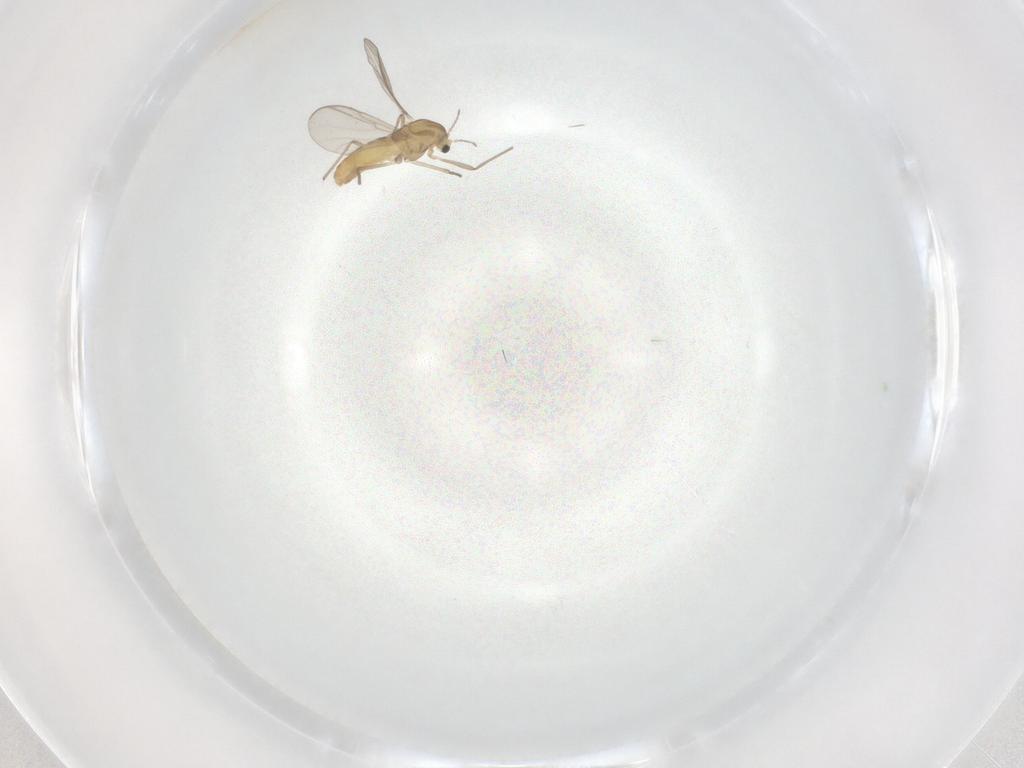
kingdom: Animalia
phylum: Arthropoda
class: Insecta
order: Diptera
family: Chironomidae
